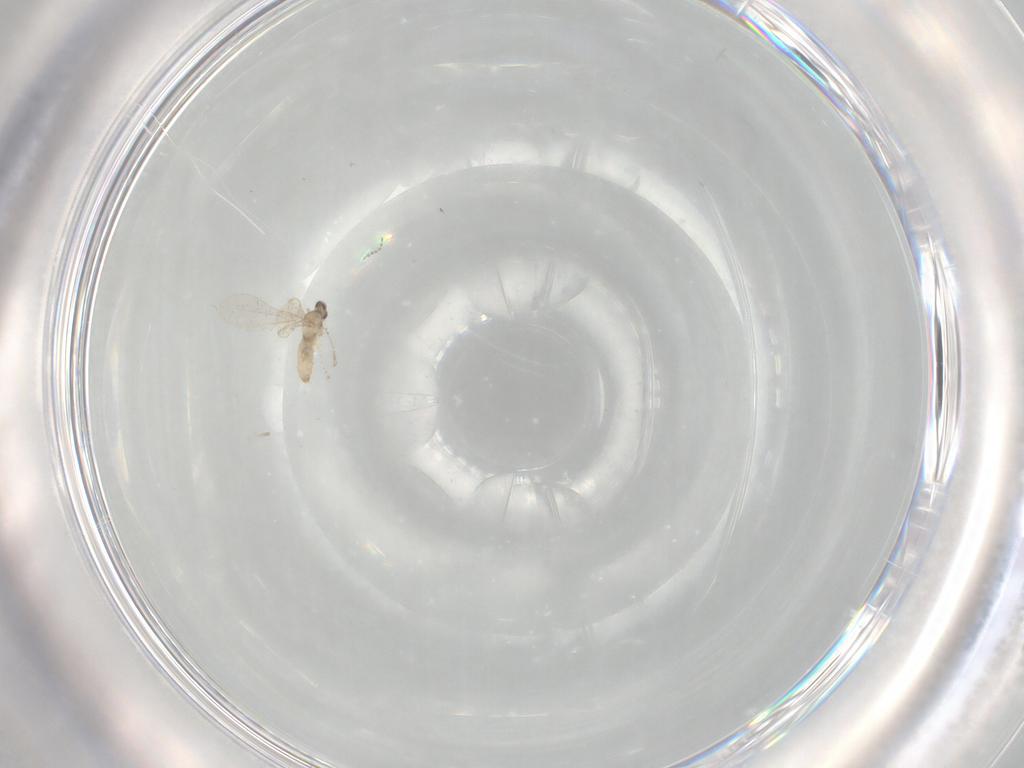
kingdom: Animalia
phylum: Arthropoda
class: Insecta
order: Diptera
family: Cecidomyiidae
